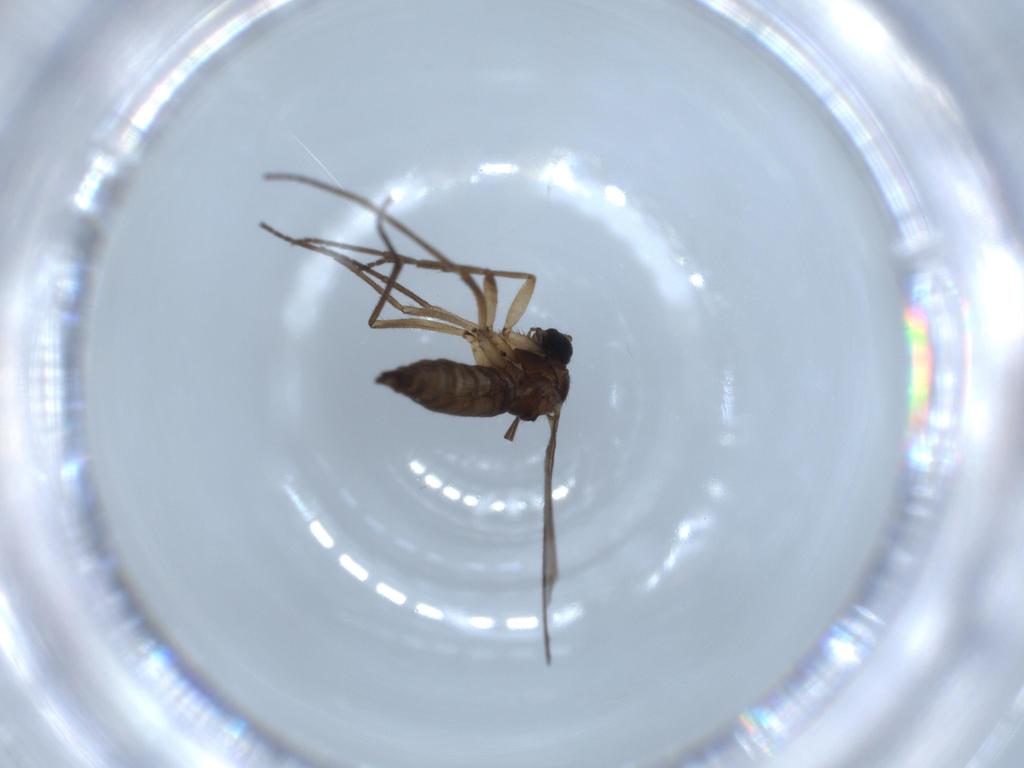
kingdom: Animalia
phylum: Arthropoda
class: Insecta
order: Diptera
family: Sciaridae
